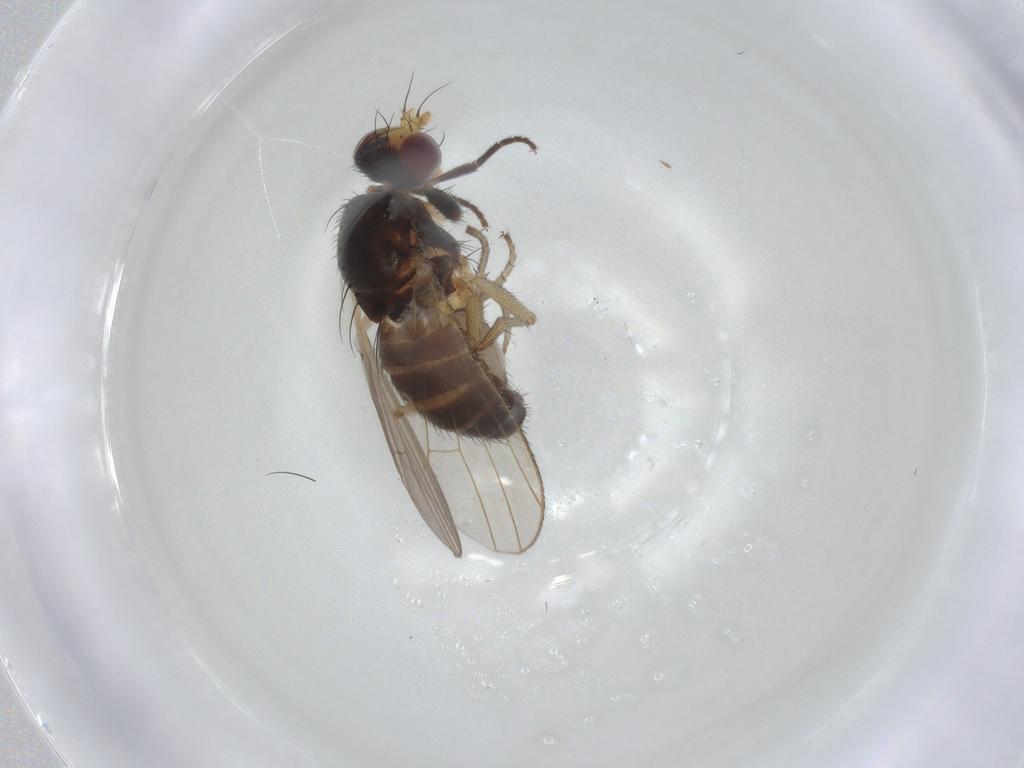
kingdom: Animalia
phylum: Arthropoda
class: Insecta
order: Diptera
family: Heleomyzidae
